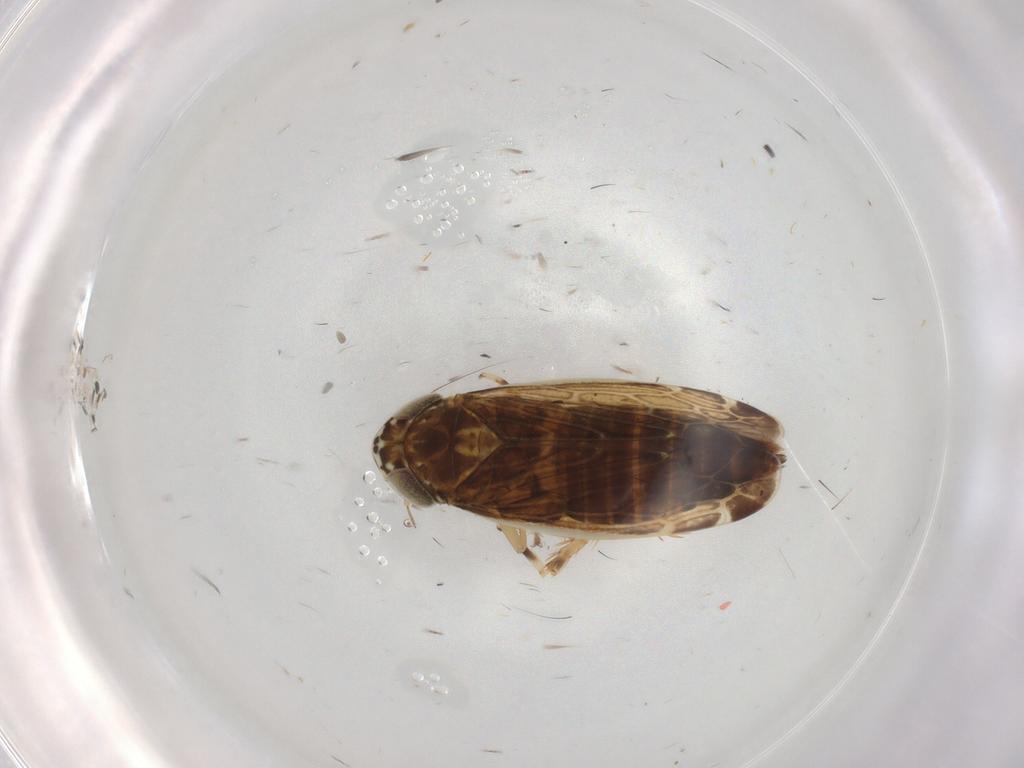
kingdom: Animalia
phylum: Arthropoda
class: Insecta
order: Hemiptera
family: Cicadellidae
